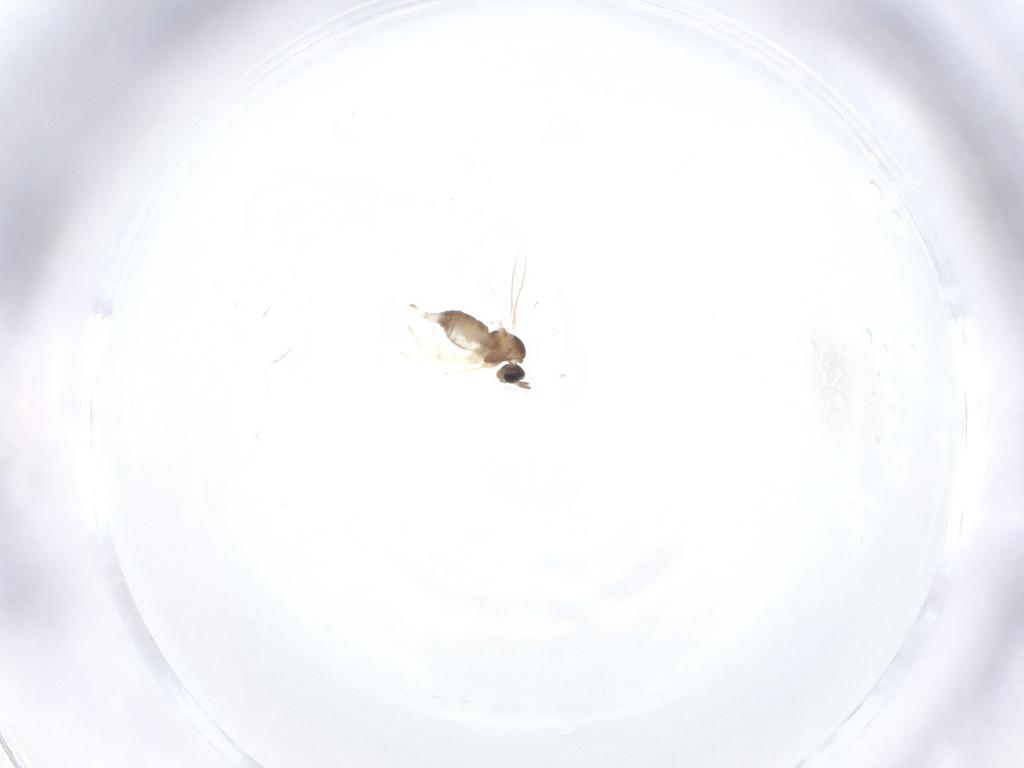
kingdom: Animalia
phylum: Arthropoda
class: Insecta
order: Diptera
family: Cecidomyiidae
